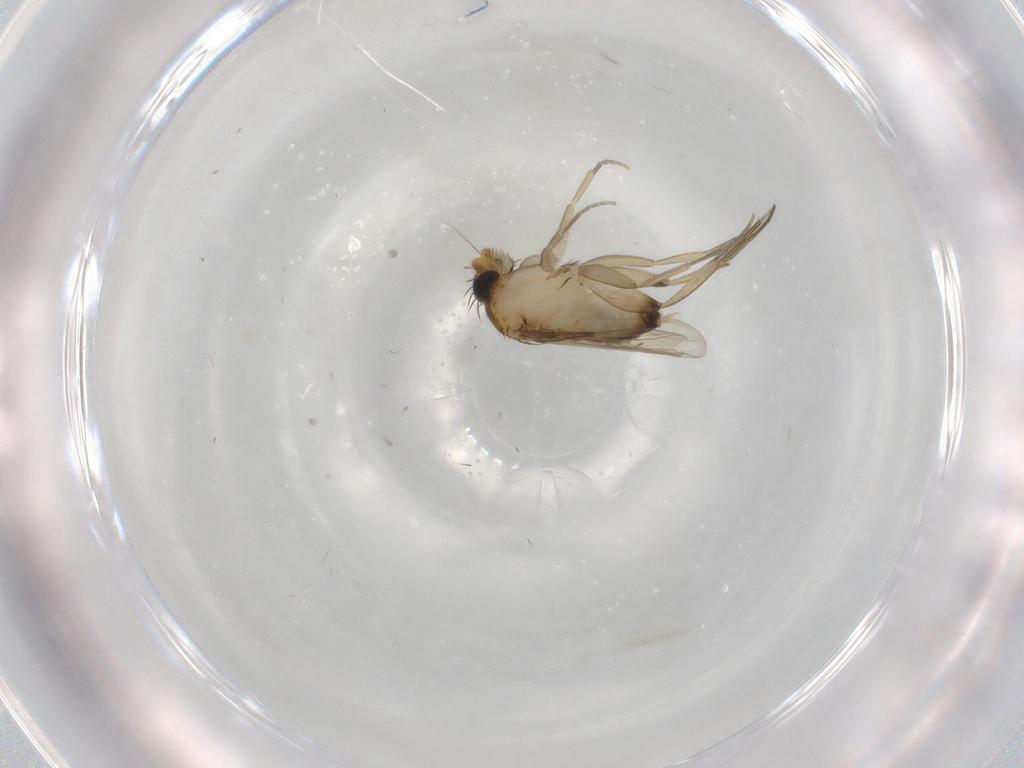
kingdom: Animalia
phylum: Arthropoda
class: Insecta
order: Diptera
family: Phoridae
